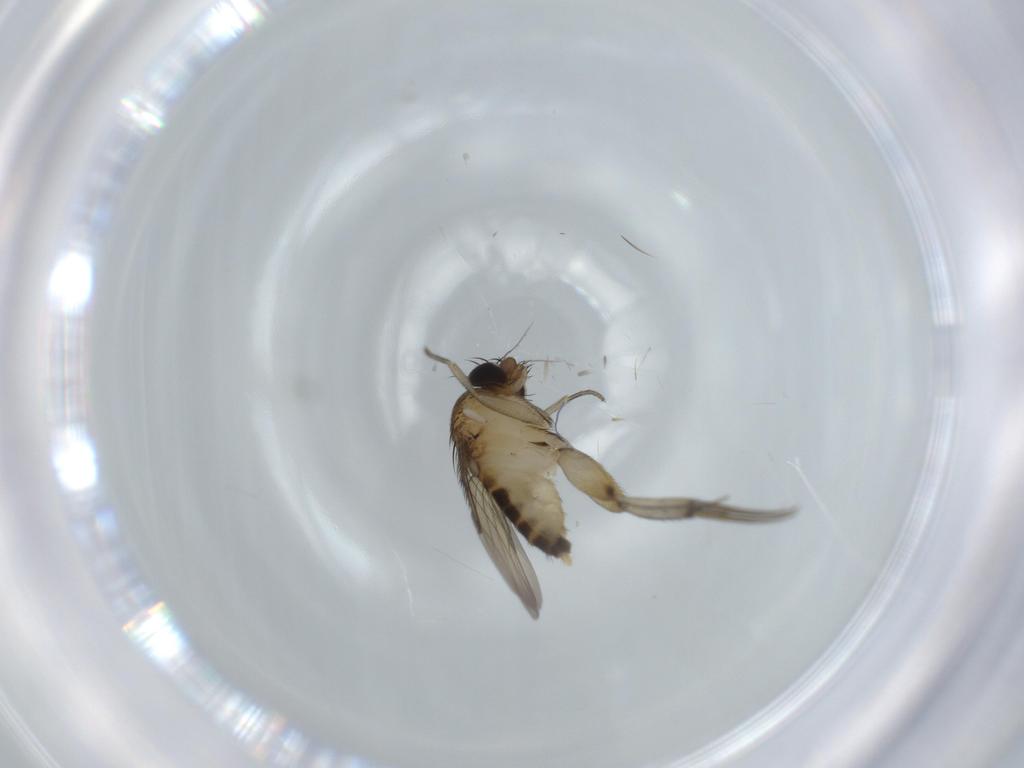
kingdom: Animalia
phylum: Arthropoda
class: Insecta
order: Diptera
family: Phoridae
